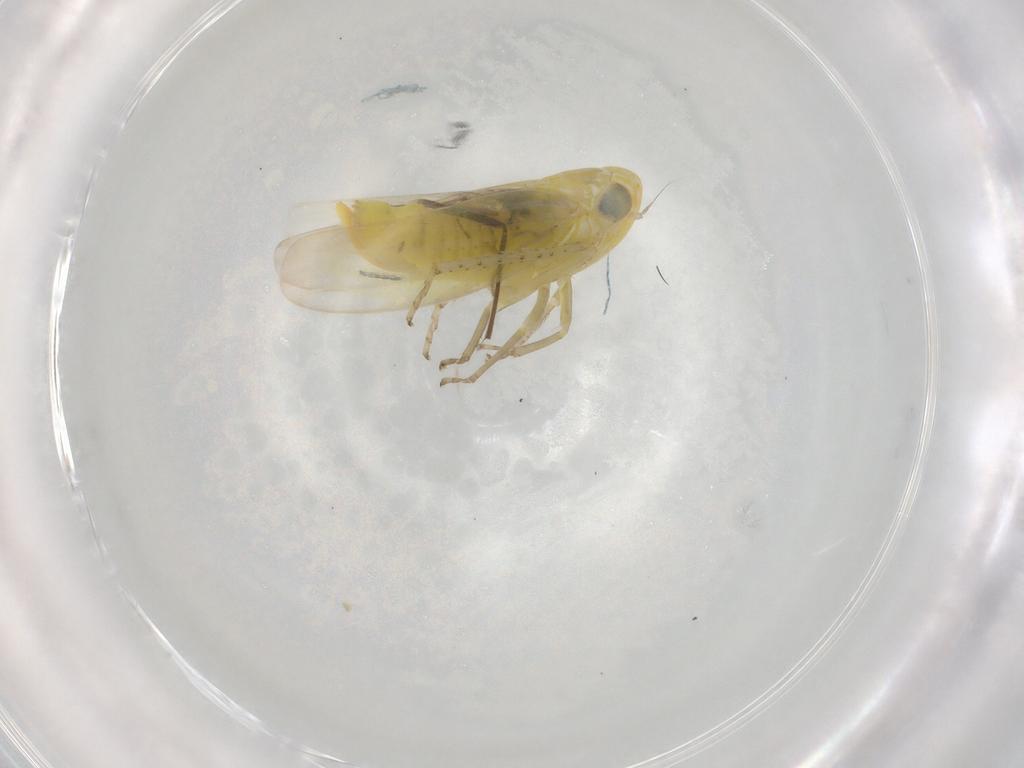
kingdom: Animalia
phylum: Arthropoda
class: Insecta
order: Hemiptera
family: Cicadellidae
